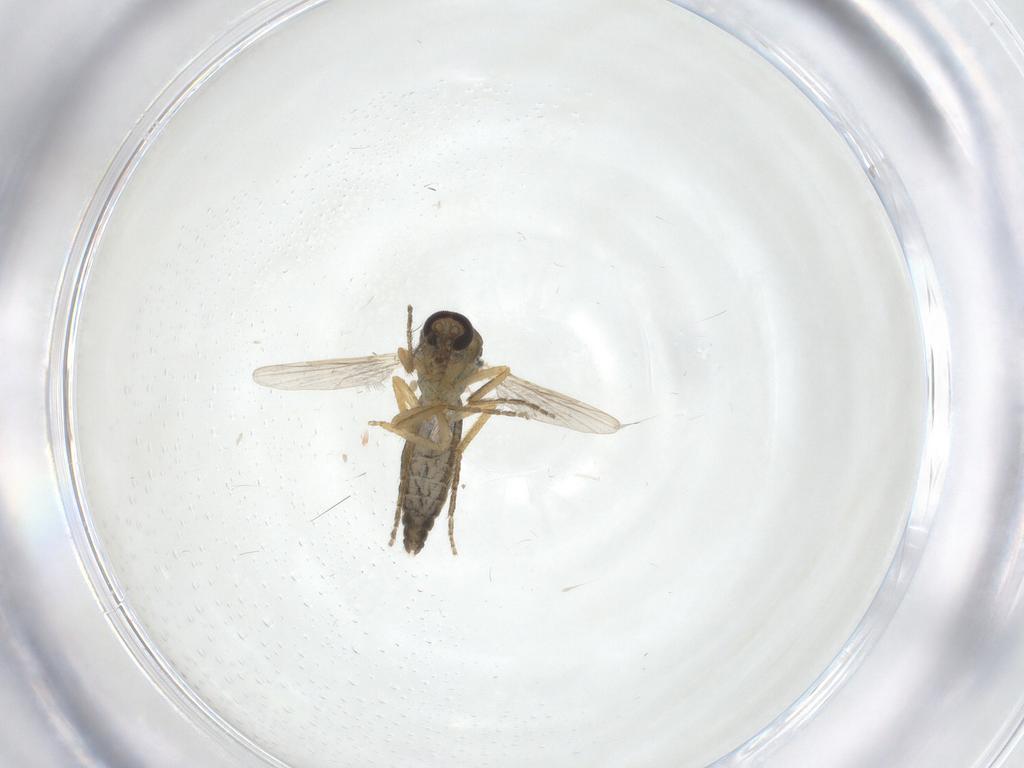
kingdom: Animalia
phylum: Arthropoda
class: Insecta
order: Diptera
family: Ceratopogonidae
